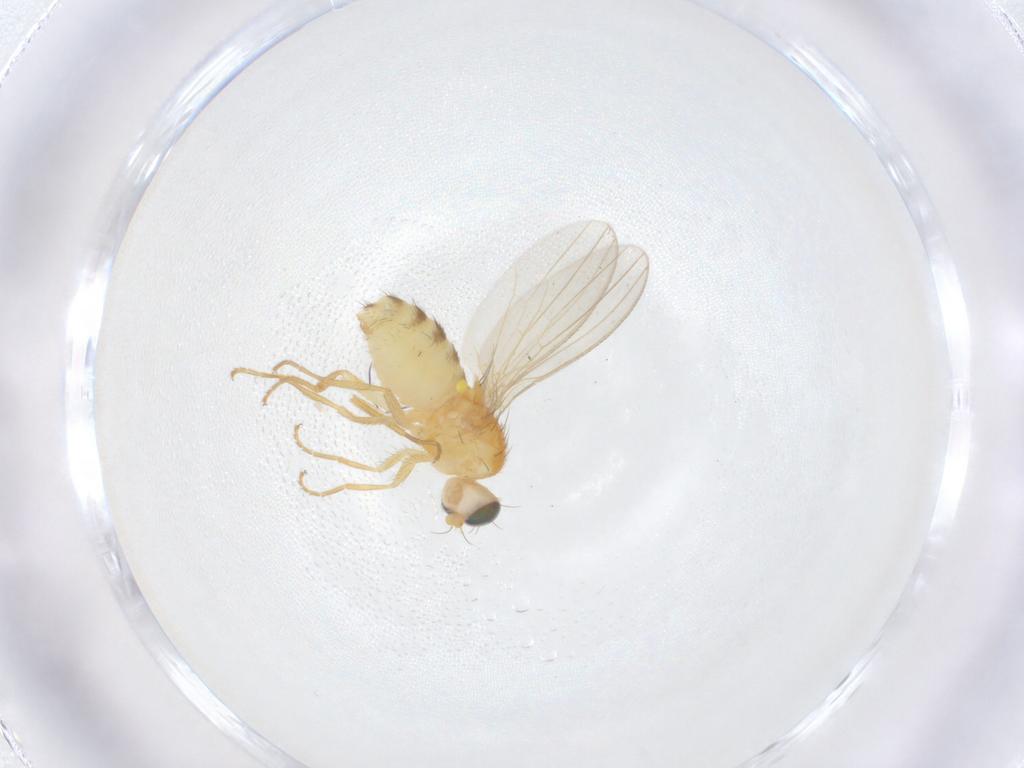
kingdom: Animalia
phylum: Arthropoda
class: Insecta
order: Diptera
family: Chyromyidae
